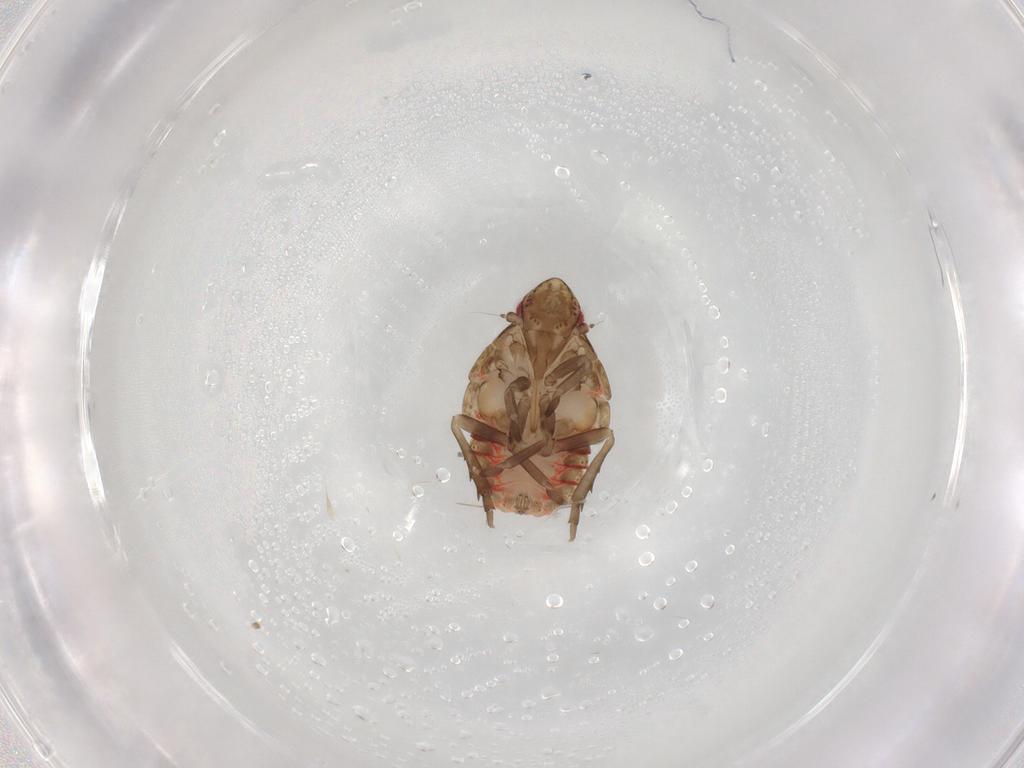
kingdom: Animalia
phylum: Arthropoda
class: Insecta
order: Hemiptera
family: Flatidae
